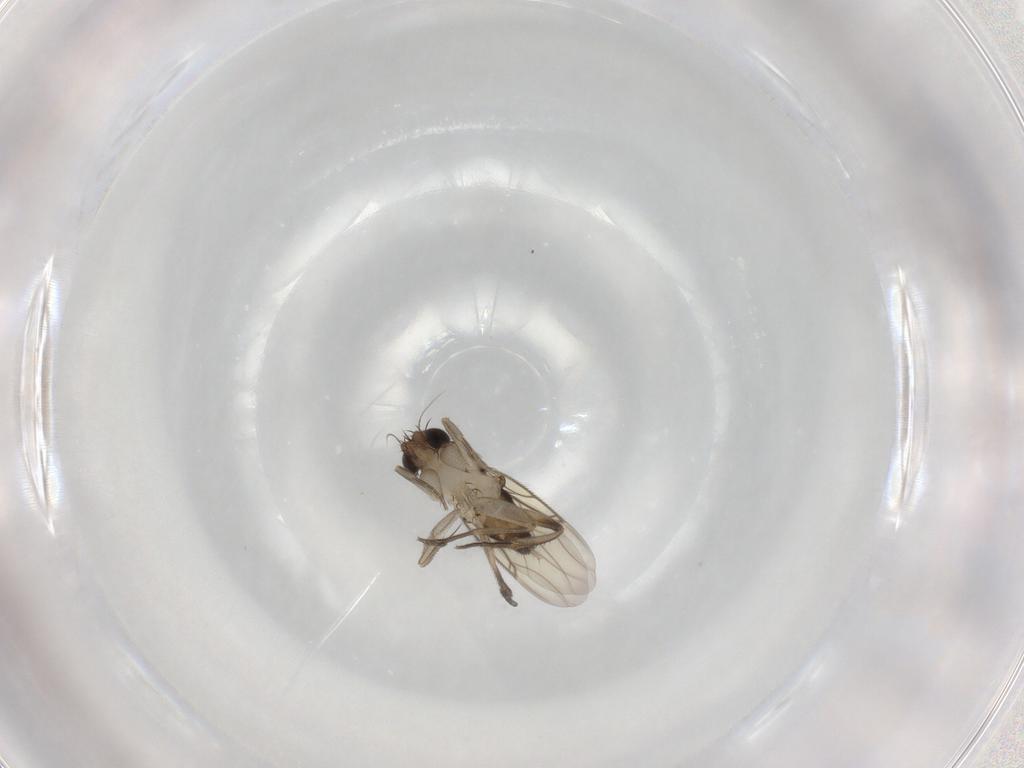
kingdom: Animalia
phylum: Arthropoda
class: Insecta
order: Diptera
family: Phoridae
